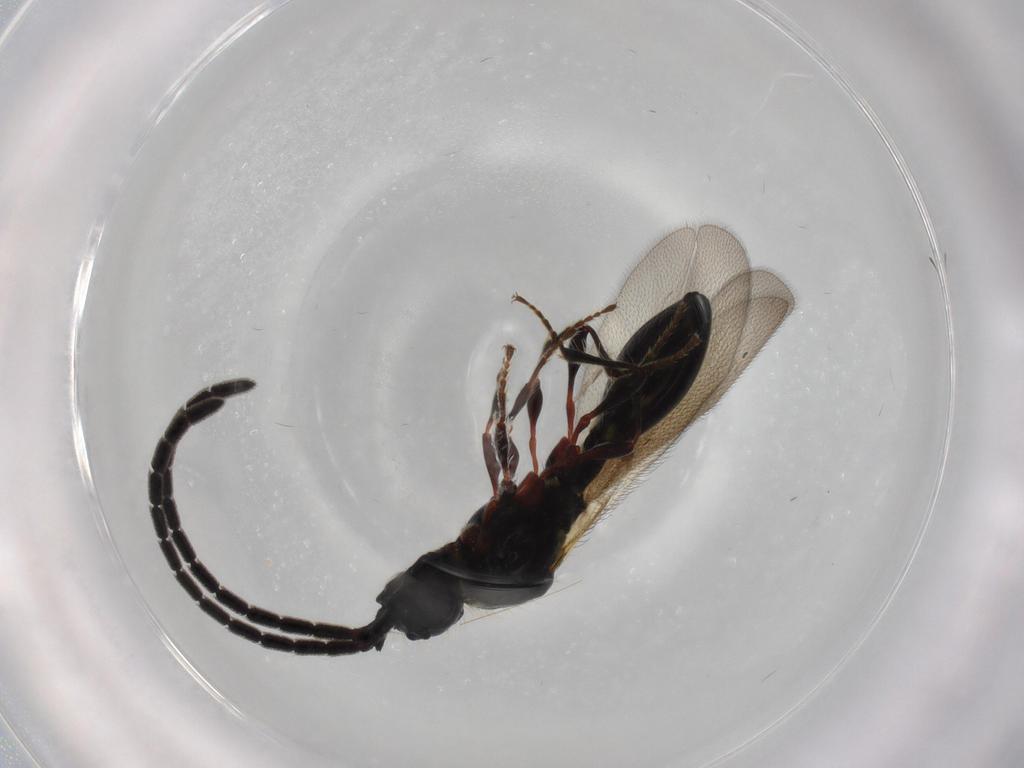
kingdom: Animalia
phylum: Arthropoda
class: Insecta
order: Hymenoptera
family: Diapriidae
